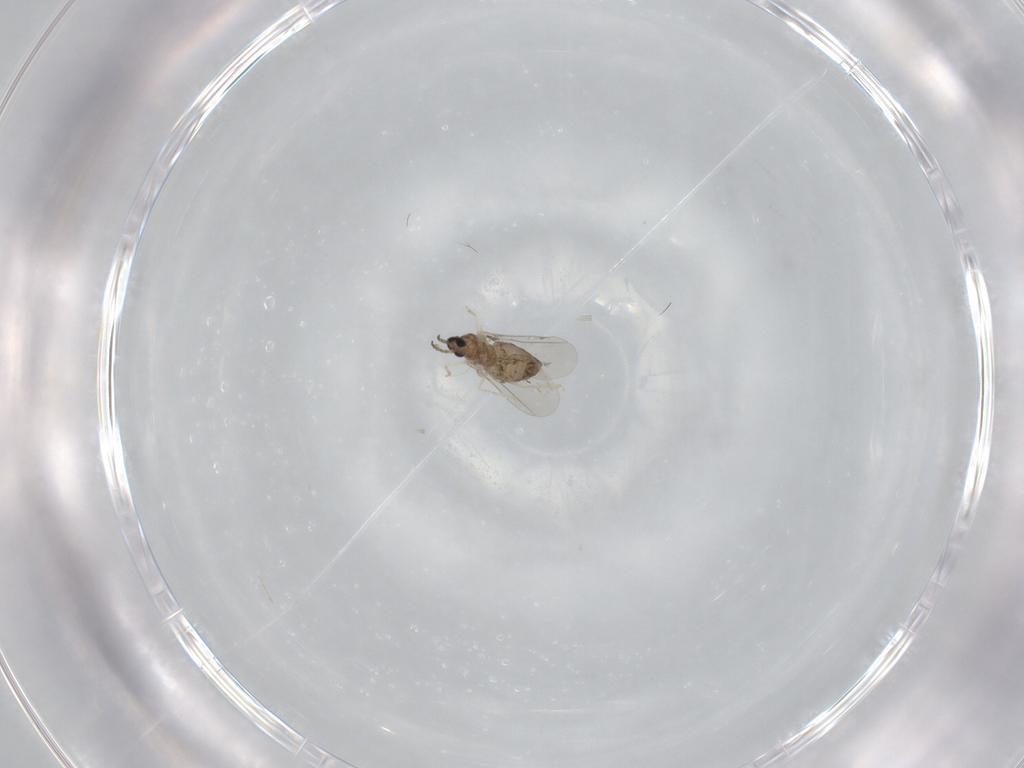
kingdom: Animalia
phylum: Arthropoda
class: Insecta
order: Diptera
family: Cecidomyiidae
